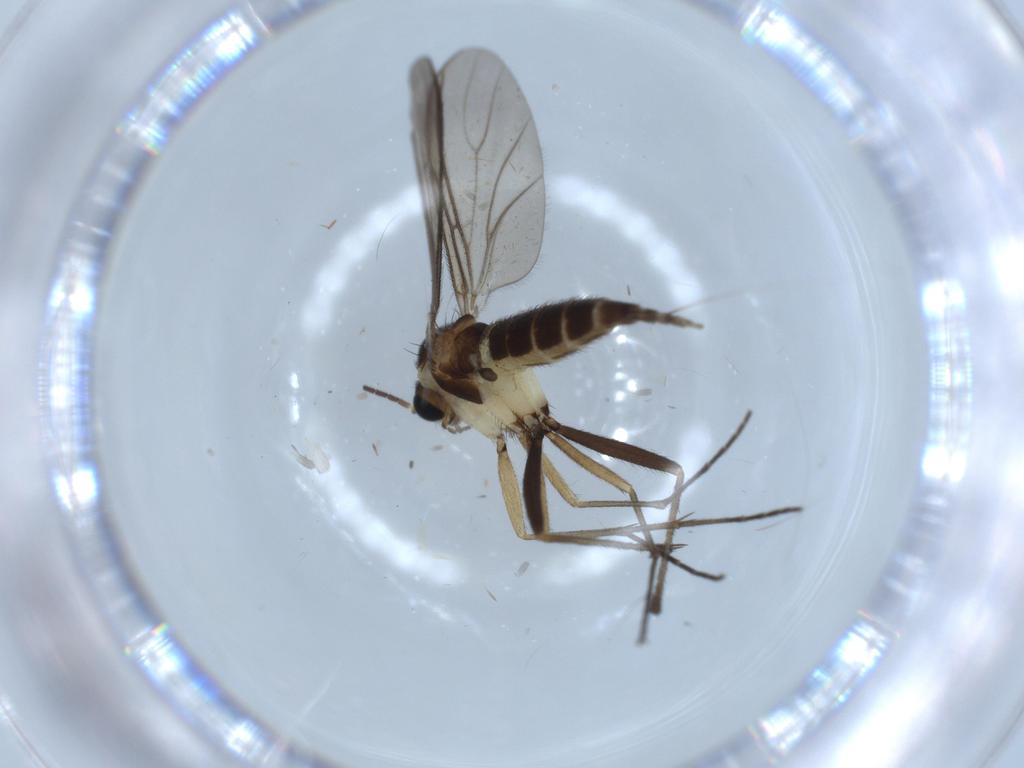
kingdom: Animalia
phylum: Arthropoda
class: Insecta
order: Diptera
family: Sciaridae
